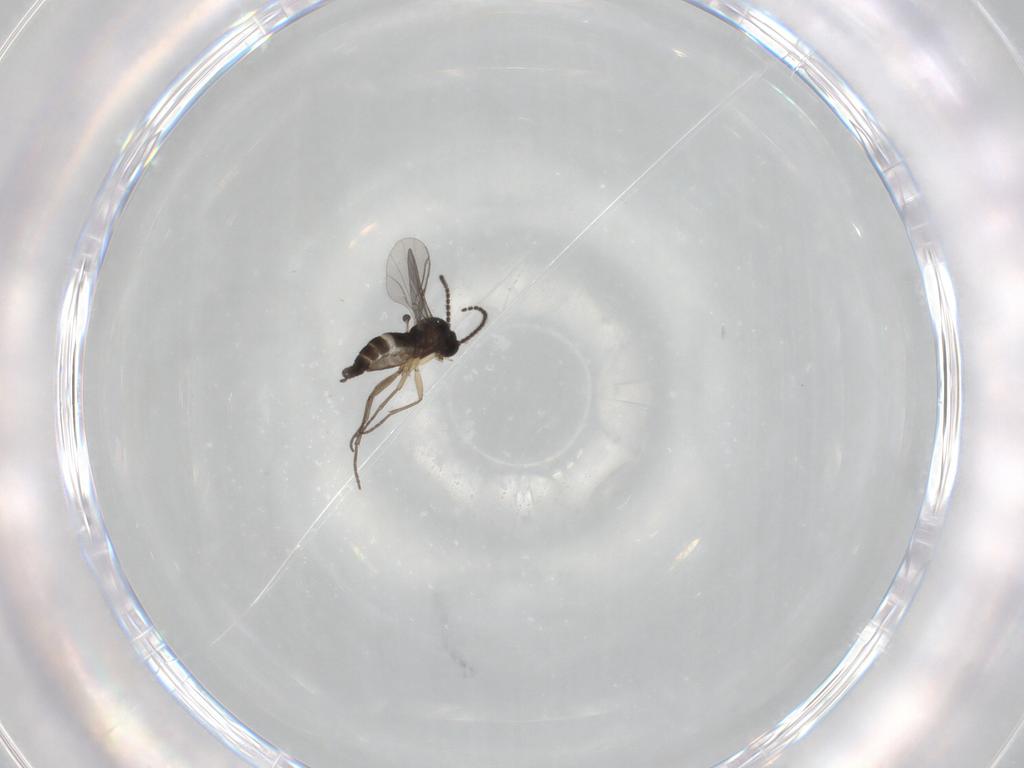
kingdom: Animalia
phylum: Arthropoda
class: Insecta
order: Diptera
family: Sciaridae
